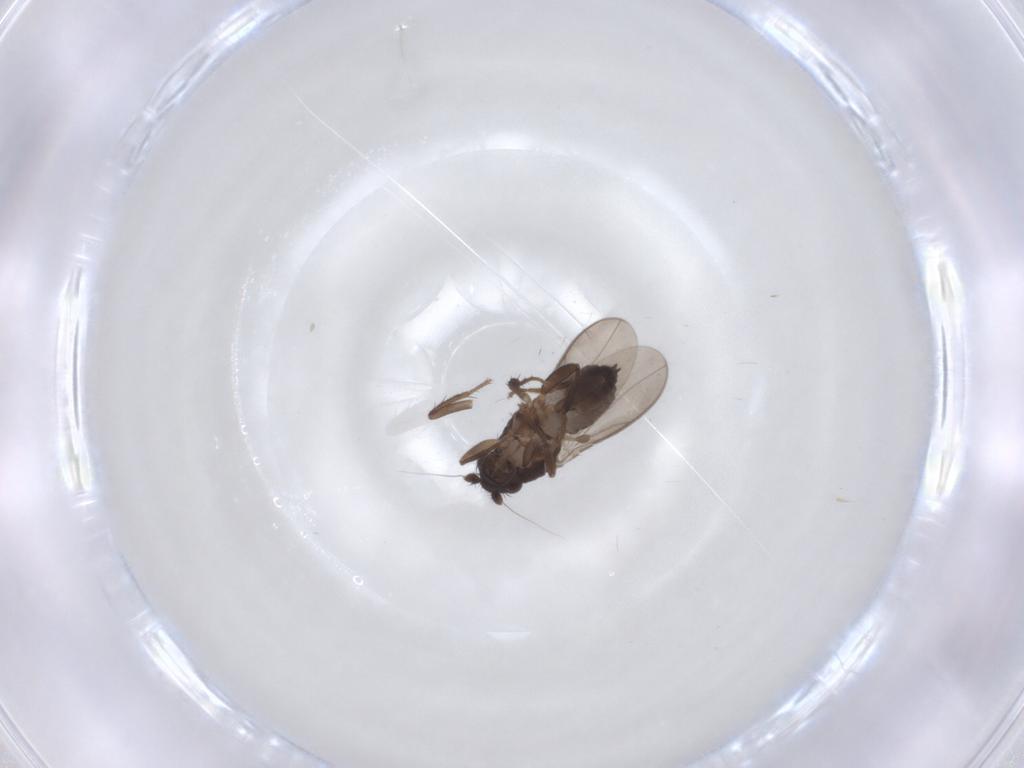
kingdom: Animalia
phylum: Arthropoda
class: Insecta
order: Diptera
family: Sphaeroceridae
